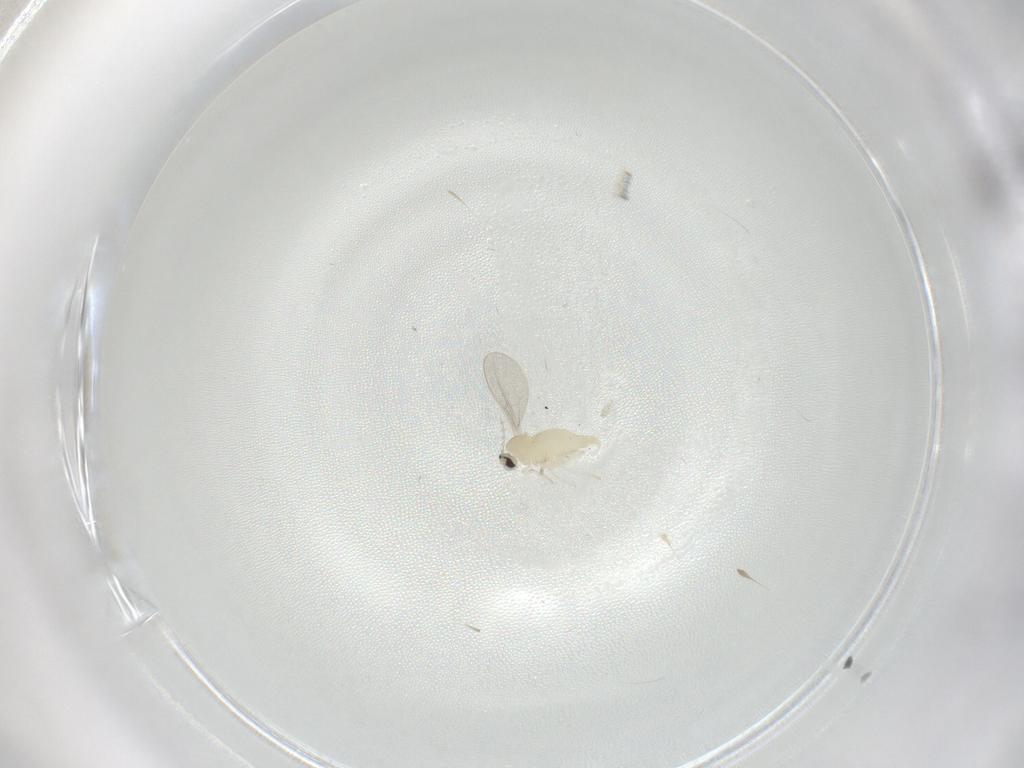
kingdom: Animalia
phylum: Arthropoda
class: Insecta
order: Diptera
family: Cecidomyiidae
